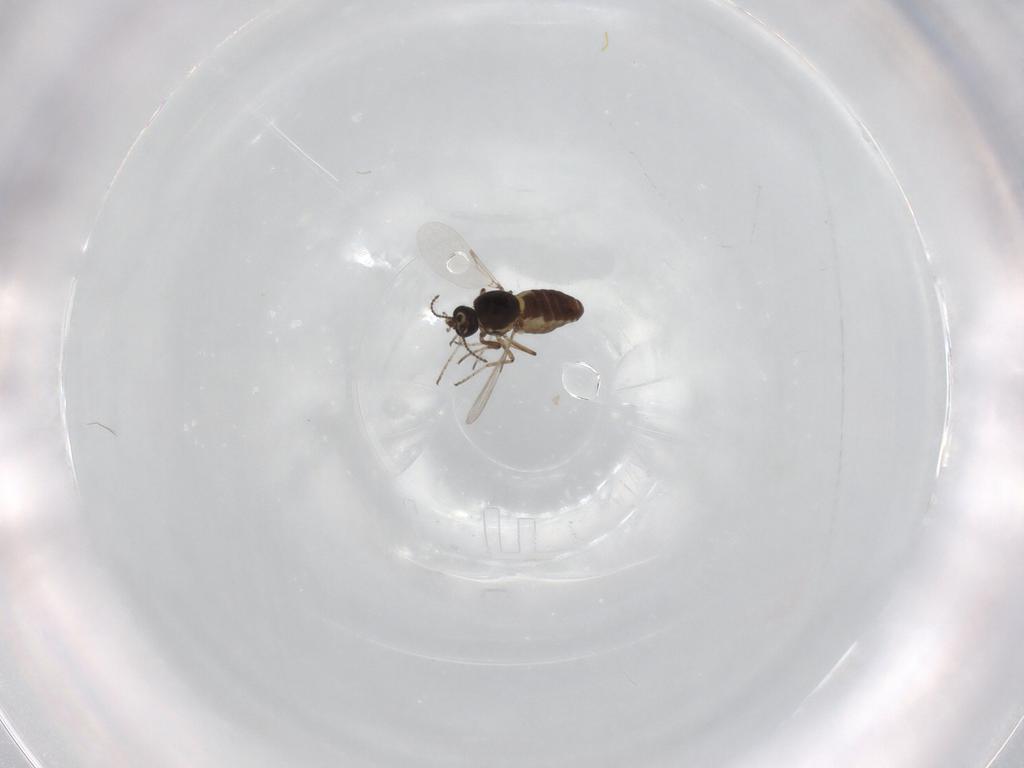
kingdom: Animalia
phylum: Arthropoda
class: Insecta
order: Diptera
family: Ceratopogonidae
